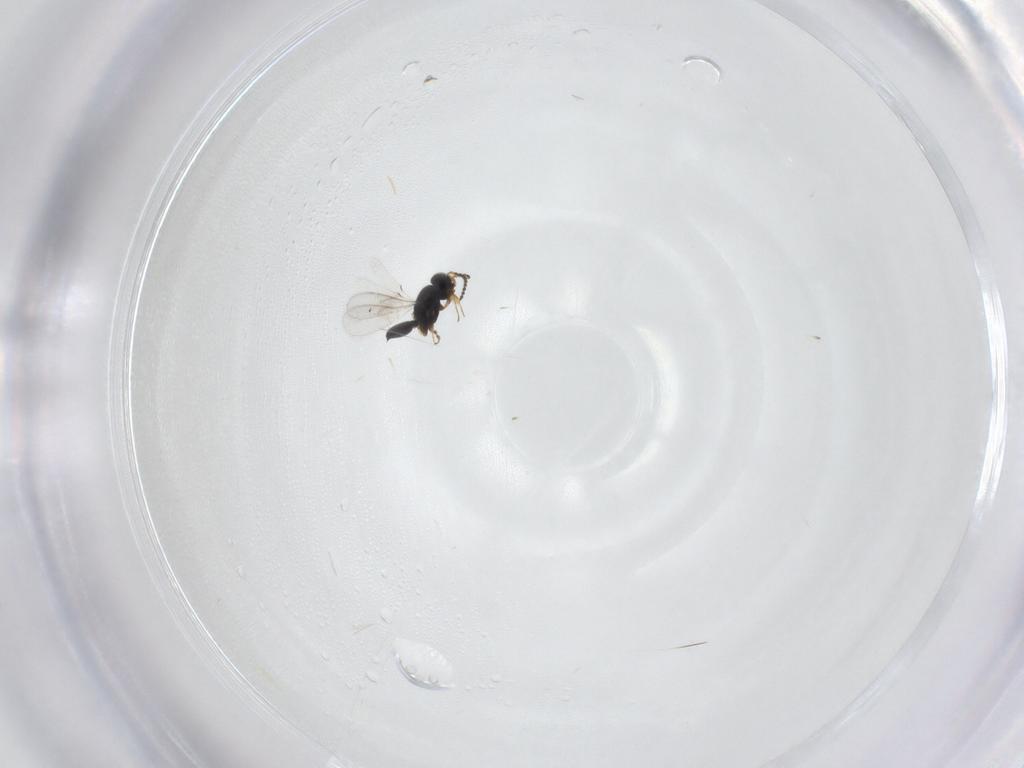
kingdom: Animalia
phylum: Arthropoda
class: Insecta
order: Hymenoptera
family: Scelionidae
